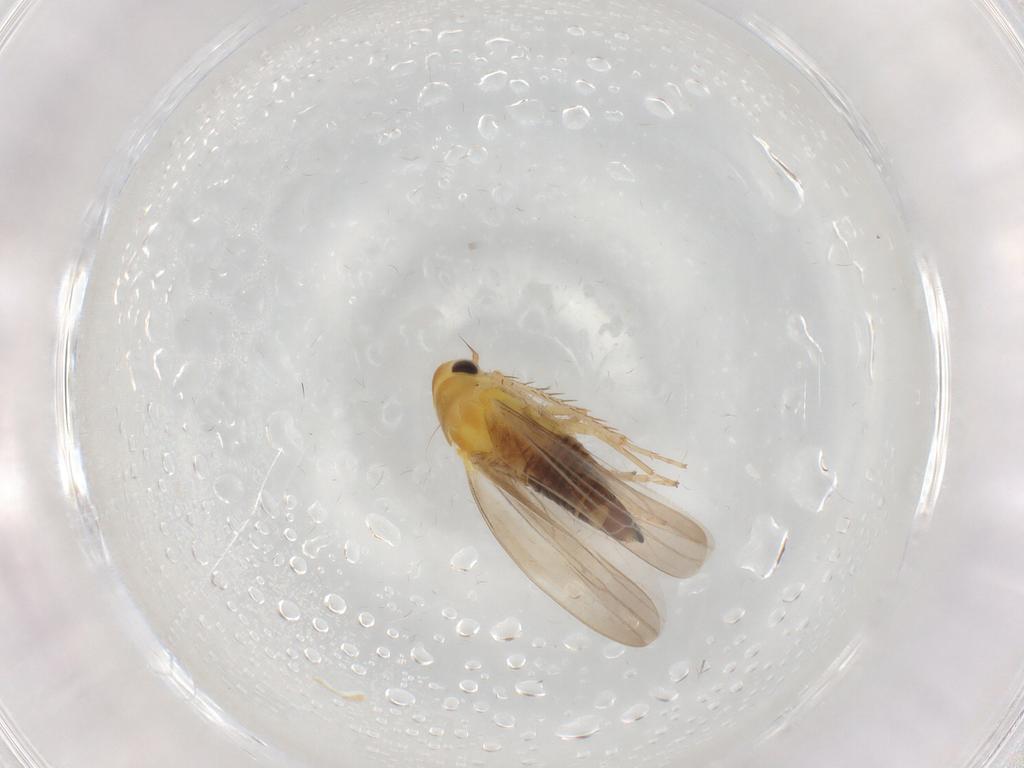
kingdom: Animalia
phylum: Arthropoda
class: Insecta
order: Hemiptera
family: Cicadellidae
